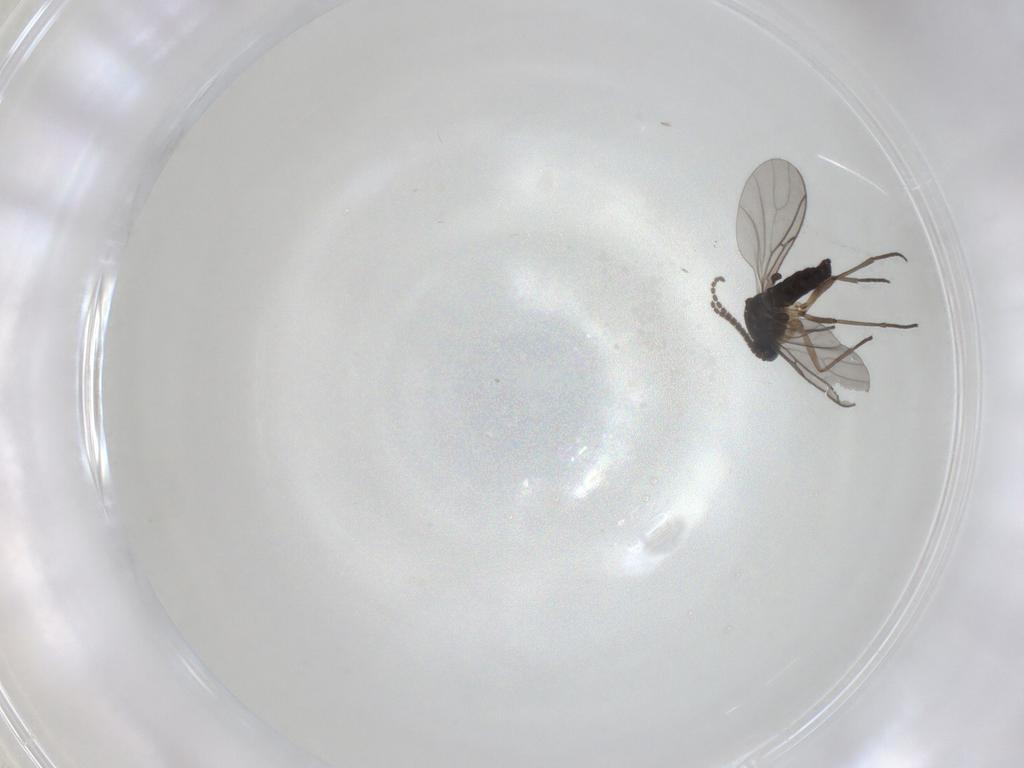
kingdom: Animalia
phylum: Arthropoda
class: Insecta
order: Diptera
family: Sciaridae
